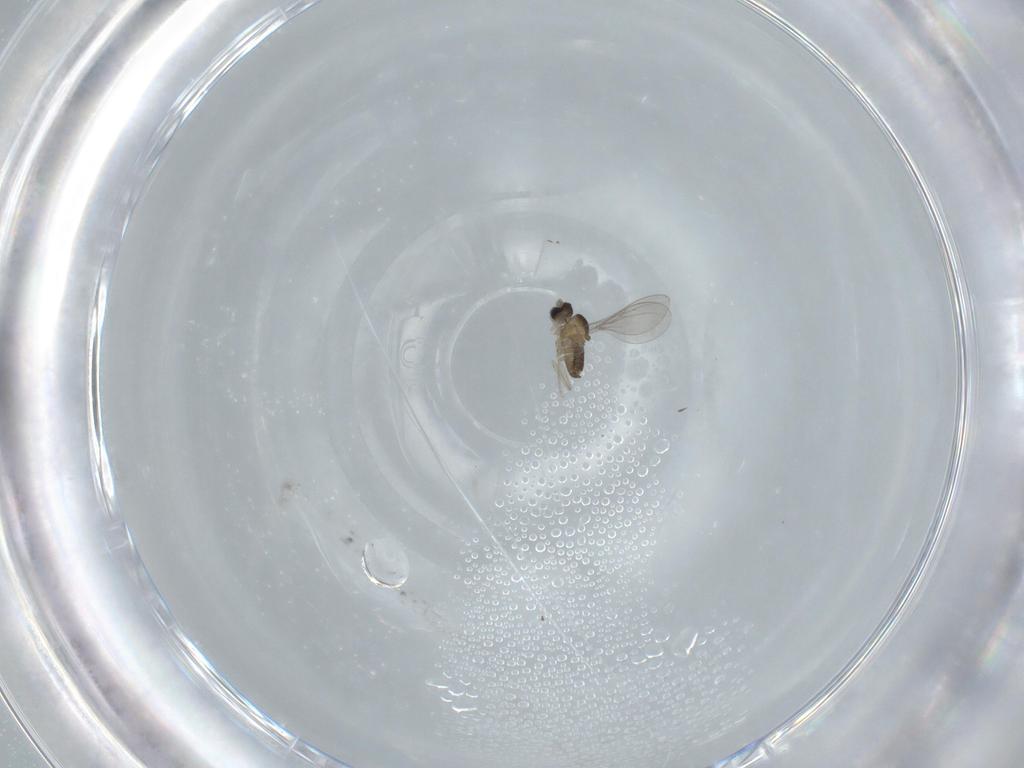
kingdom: Animalia
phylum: Arthropoda
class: Insecta
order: Diptera
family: Cecidomyiidae
